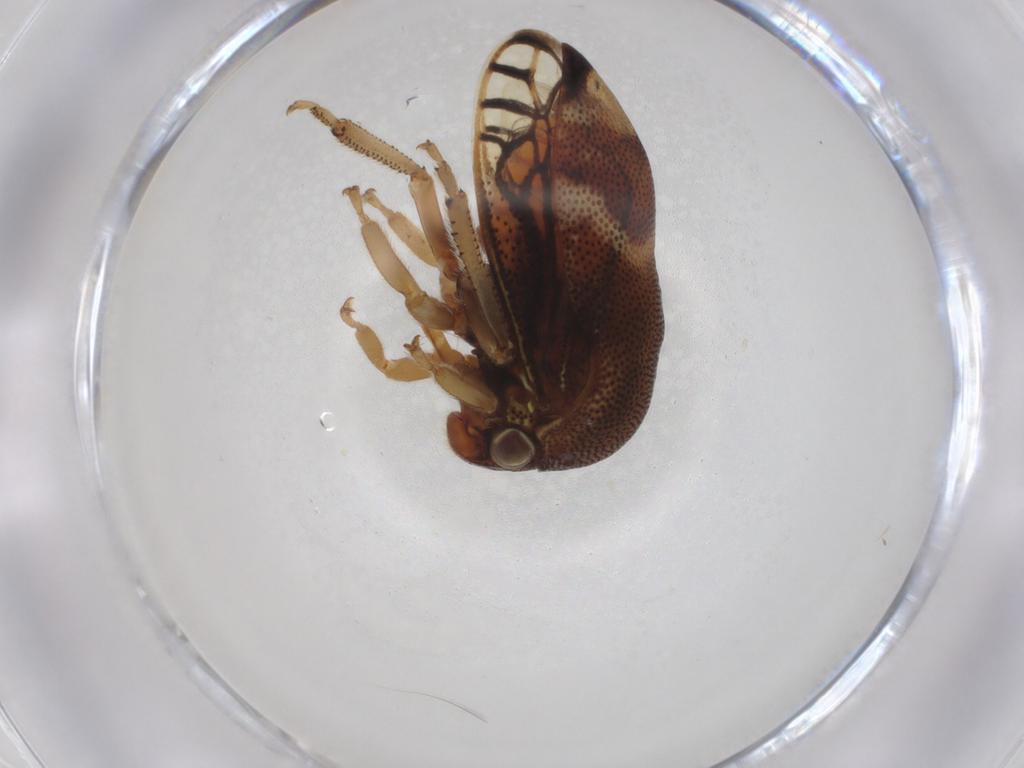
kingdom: Animalia
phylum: Arthropoda
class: Insecta
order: Hemiptera
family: Membracidae
